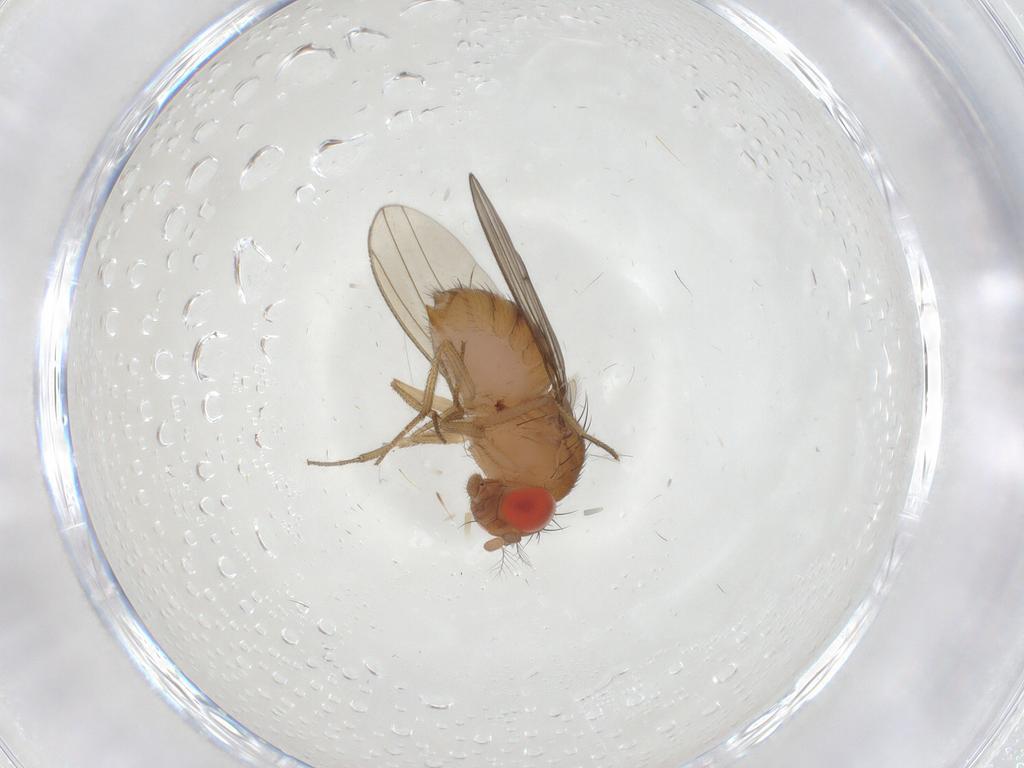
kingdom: Animalia
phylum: Arthropoda
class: Insecta
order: Diptera
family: Drosophilidae
